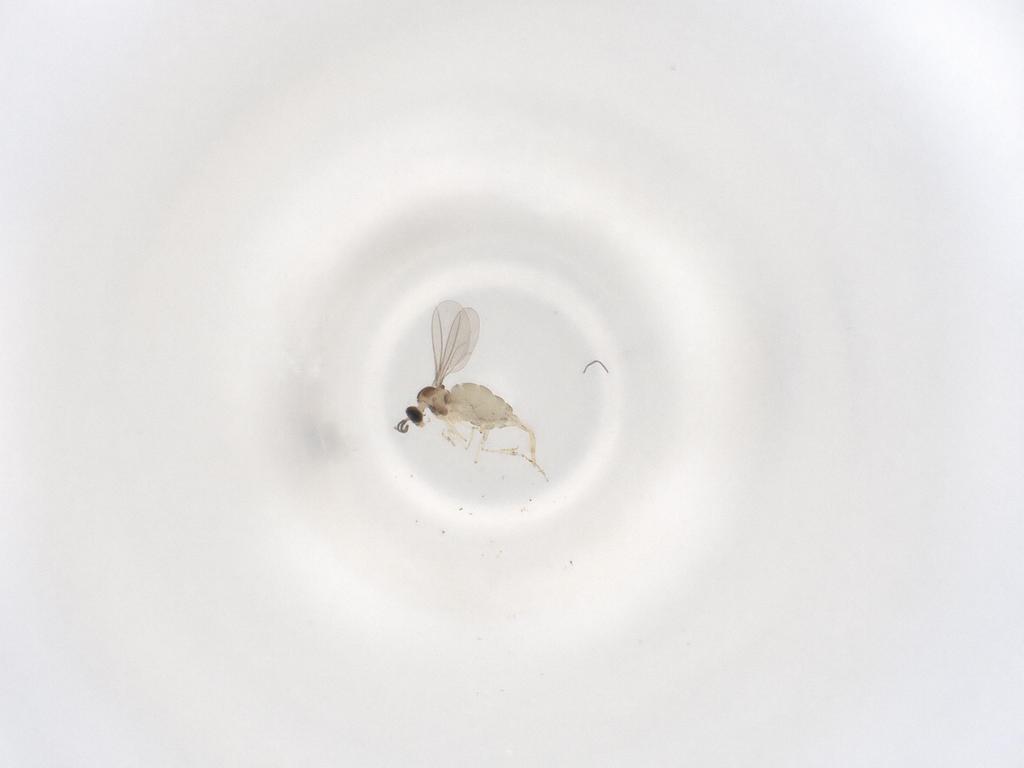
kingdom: Animalia
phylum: Arthropoda
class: Insecta
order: Diptera
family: Cecidomyiidae
